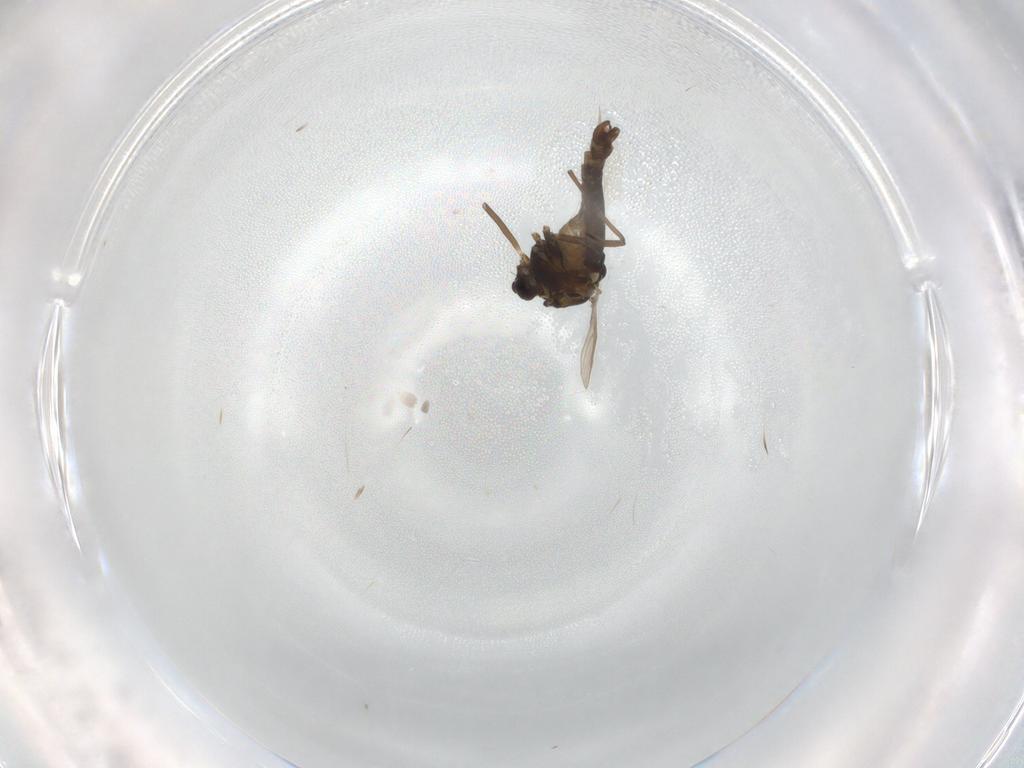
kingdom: Animalia
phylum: Arthropoda
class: Insecta
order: Diptera
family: Chironomidae
